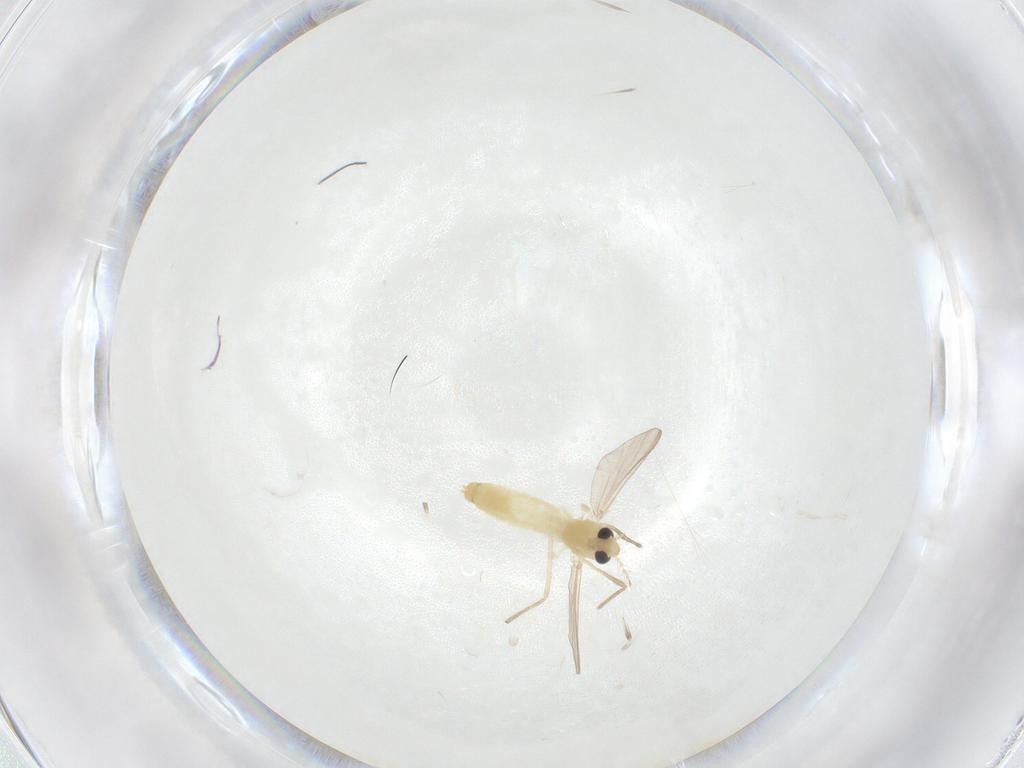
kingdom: Animalia
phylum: Arthropoda
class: Insecta
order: Diptera
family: Chironomidae
